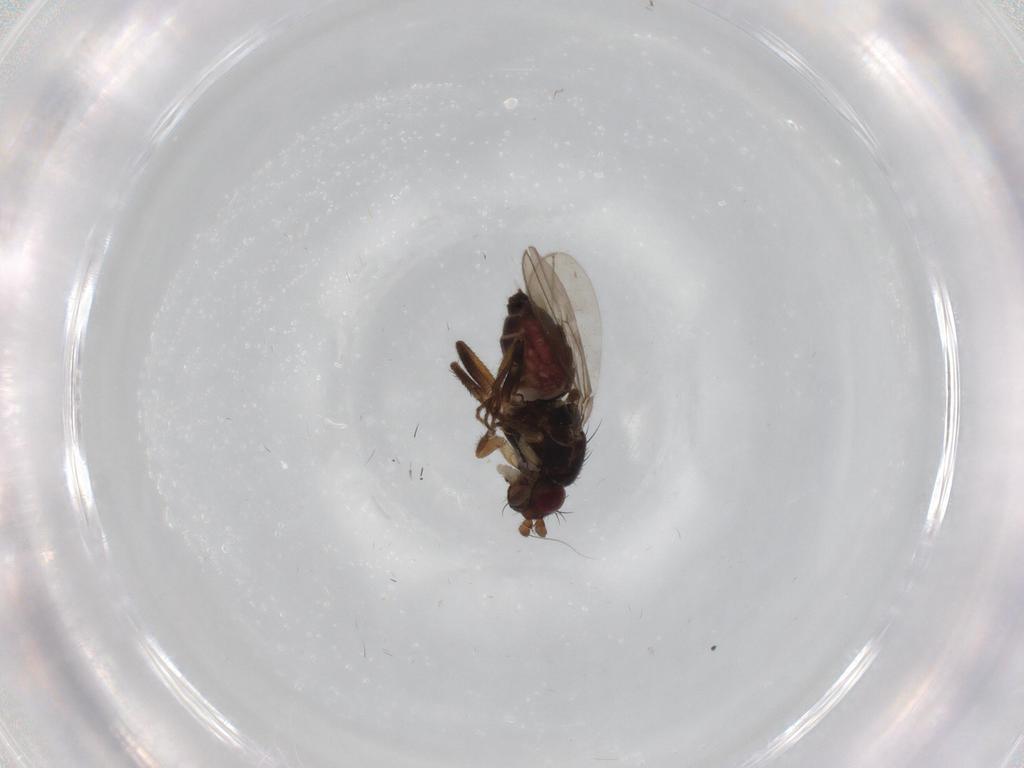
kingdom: Animalia
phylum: Arthropoda
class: Insecta
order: Diptera
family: Sphaeroceridae
